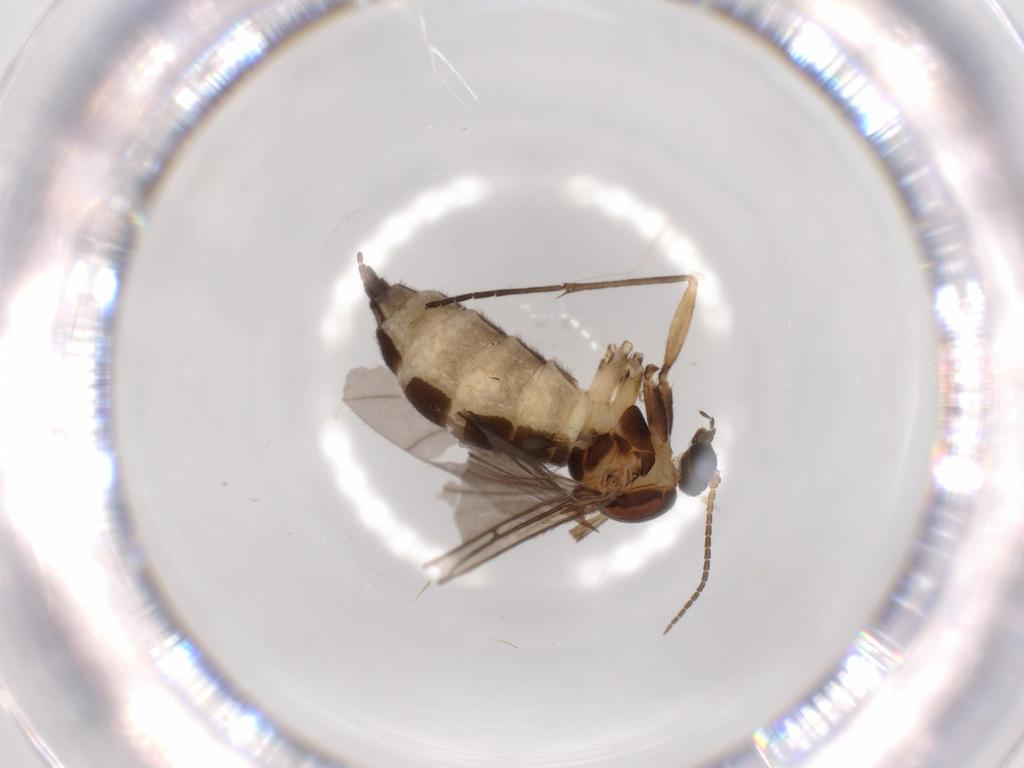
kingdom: Animalia
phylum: Arthropoda
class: Insecta
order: Diptera
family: Sciaridae
